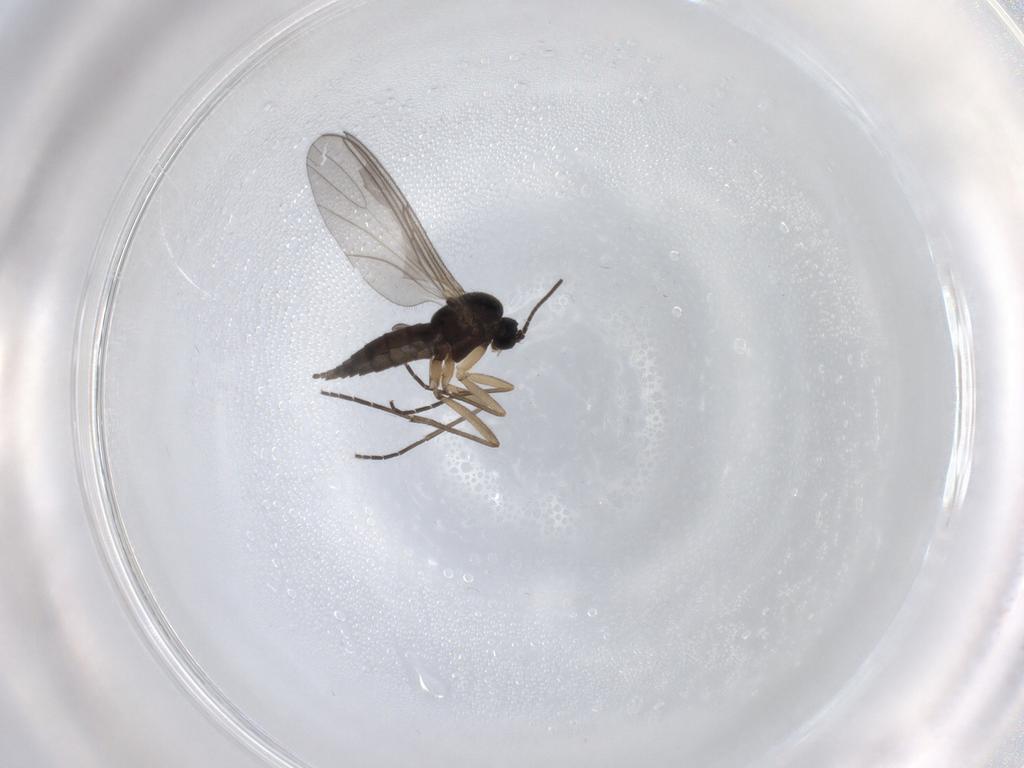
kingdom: Animalia
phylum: Arthropoda
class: Insecta
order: Diptera
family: Sciaridae
